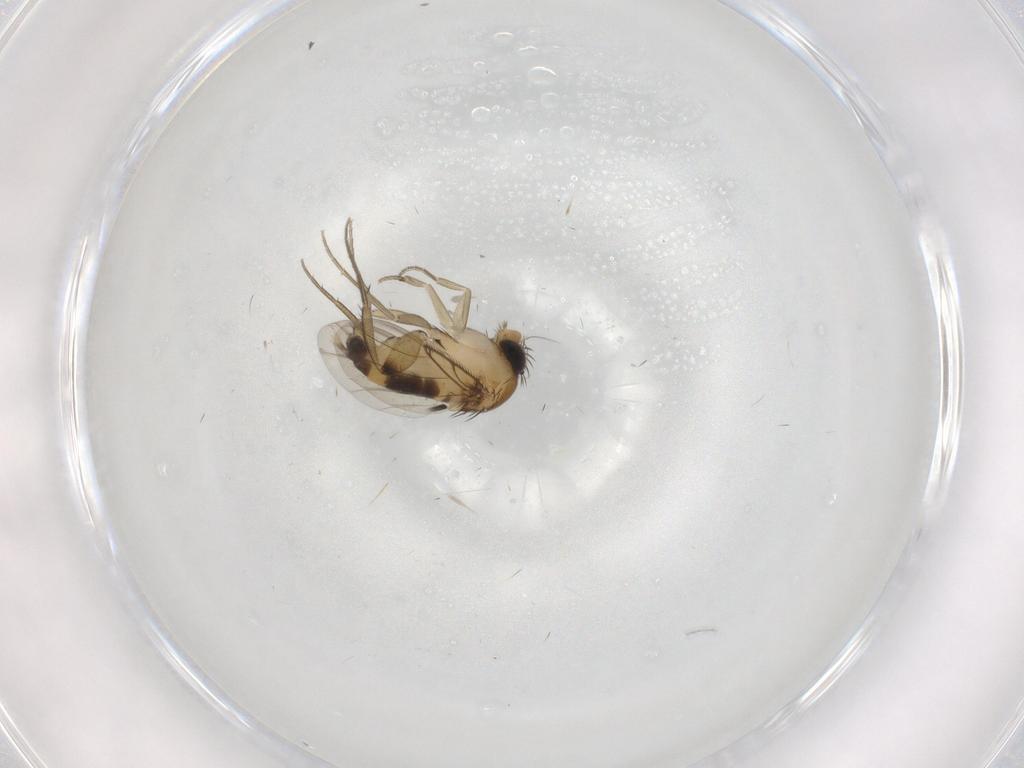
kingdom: Animalia
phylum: Arthropoda
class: Insecta
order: Diptera
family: Phoridae
